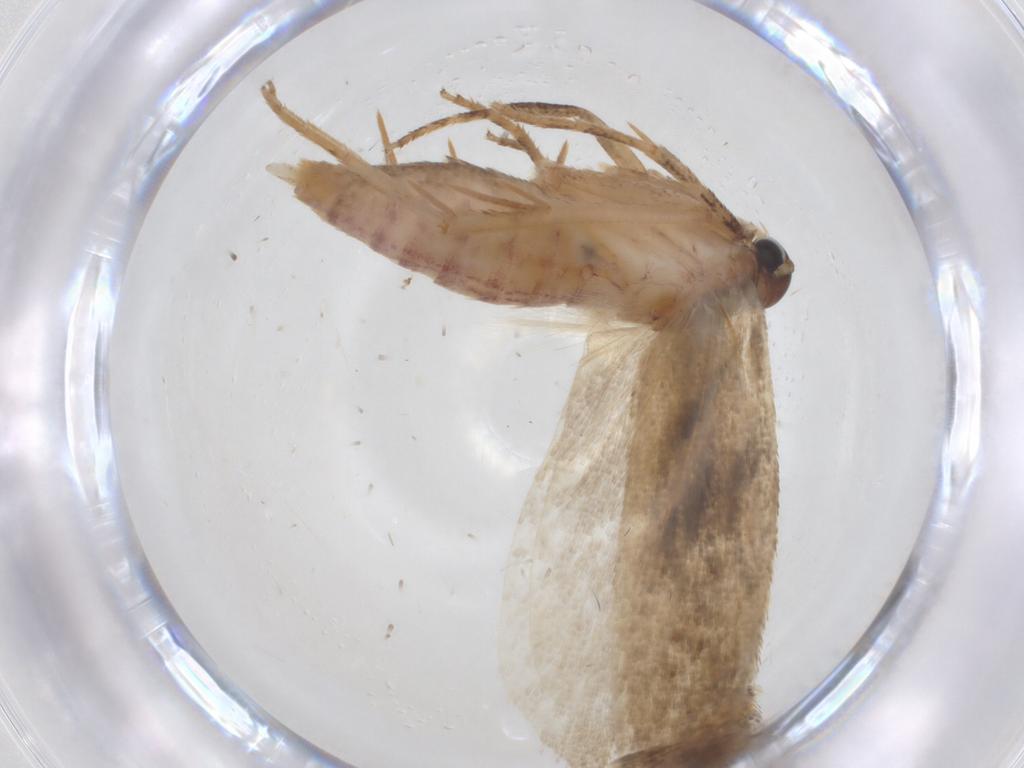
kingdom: Animalia
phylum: Arthropoda
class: Insecta
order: Lepidoptera
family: Gelechiidae
